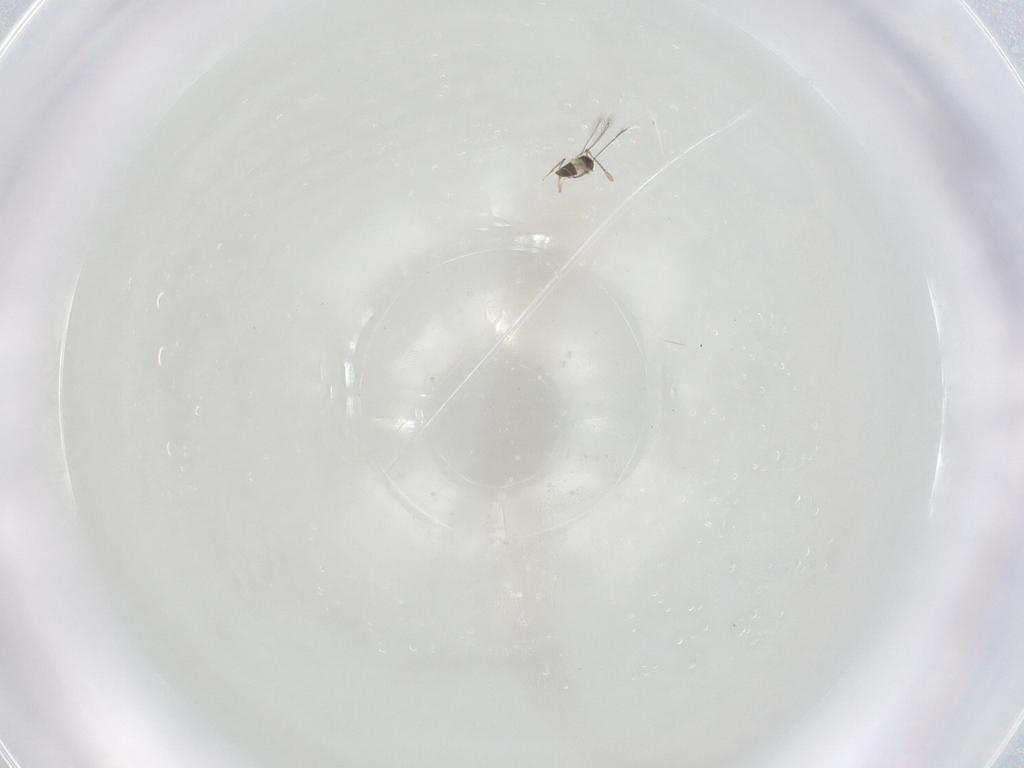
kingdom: Animalia
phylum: Arthropoda
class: Insecta
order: Hymenoptera
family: Mymaridae
